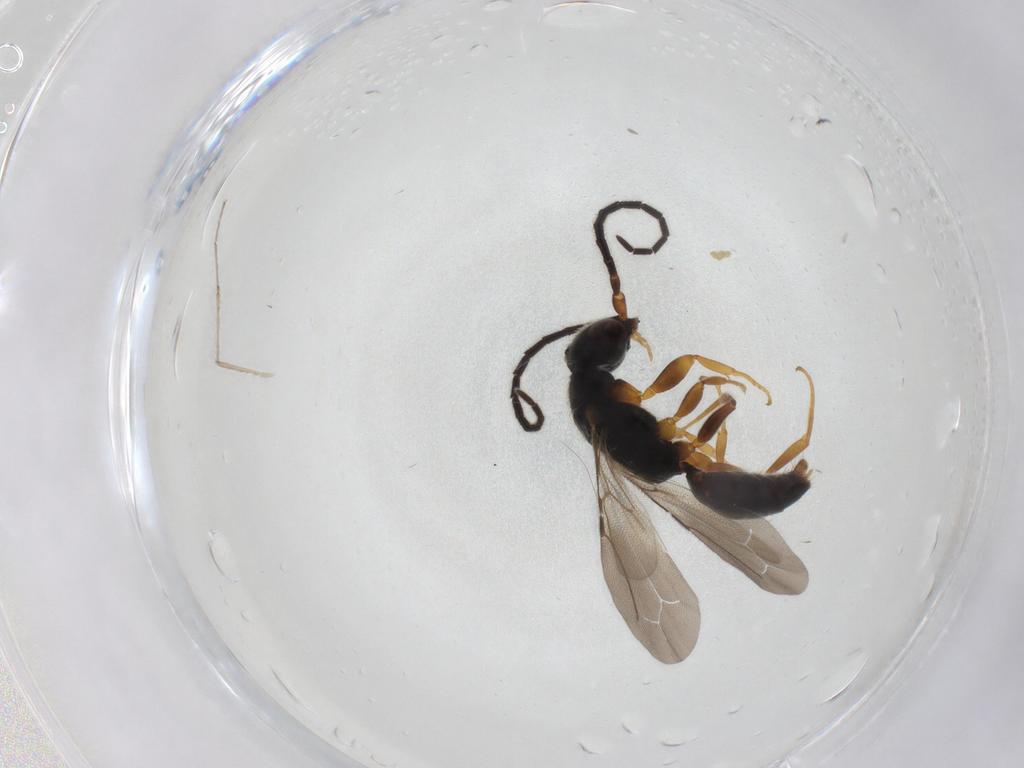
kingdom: Animalia
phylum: Arthropoda
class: Insecta
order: Hymenoptera
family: Bethylidae
